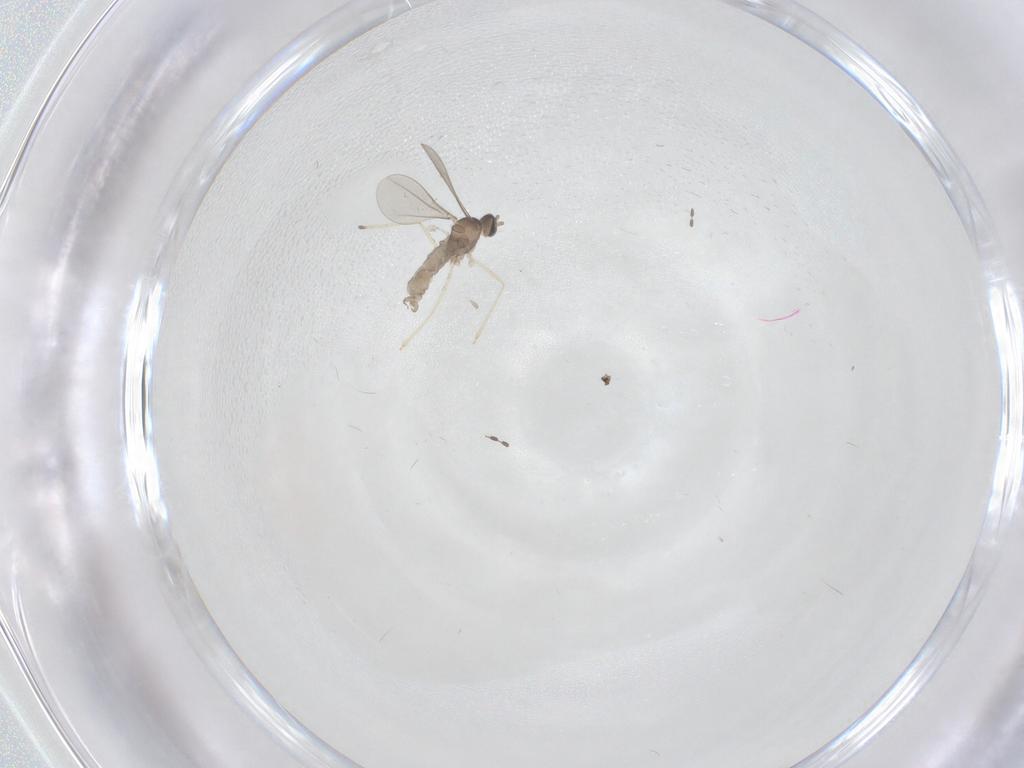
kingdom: Animalia
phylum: Arthropoda
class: Insecta
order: Diptera
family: Cecidomyiidae
